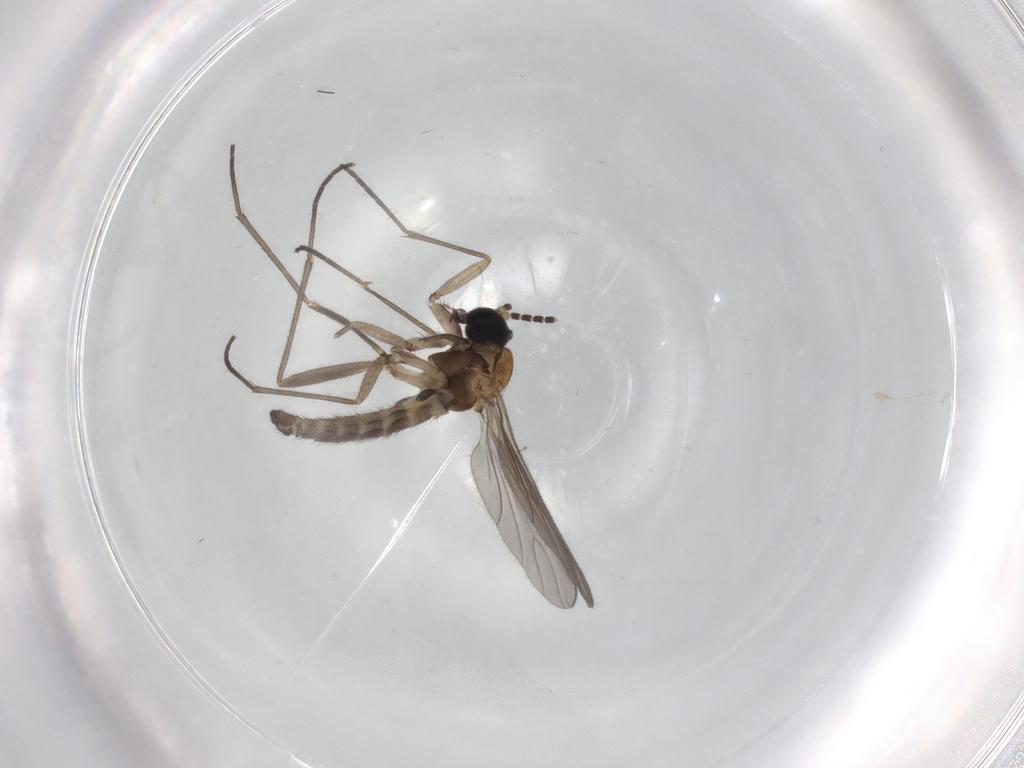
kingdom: Animalia
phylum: Arthropoda
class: Insecta
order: Diptera
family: Sciaridae
